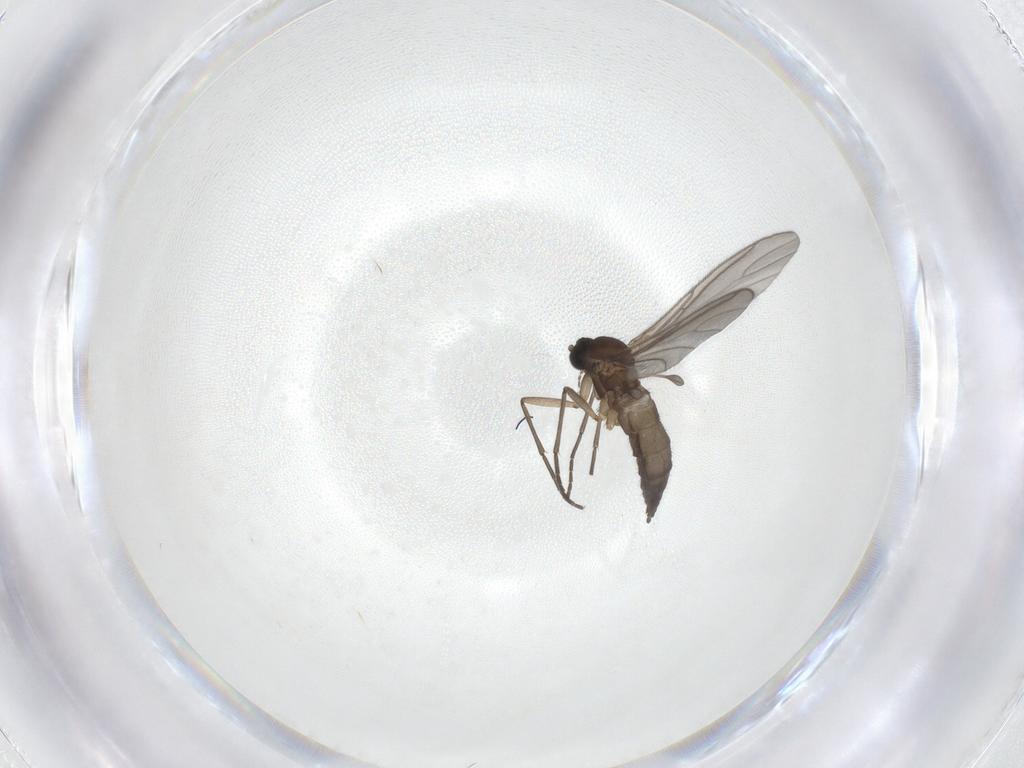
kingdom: Animalia
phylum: Arthropoda
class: Insecta
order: Diptera
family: Sciaridae
